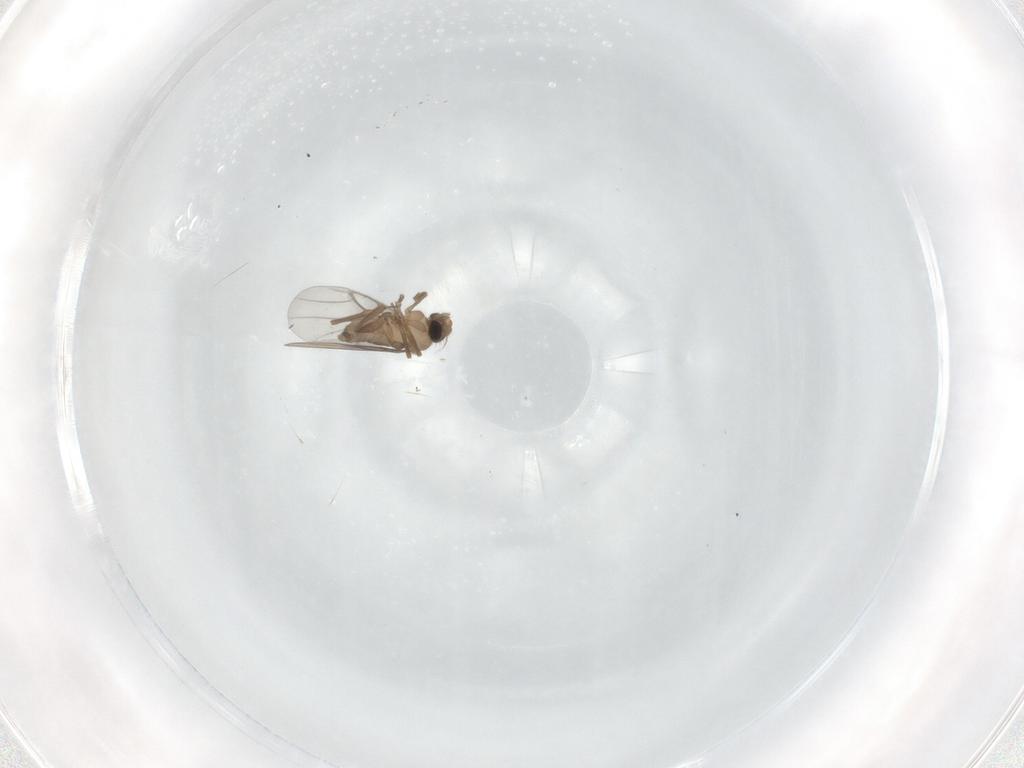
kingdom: Animalia
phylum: Arthropoda
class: Insecta
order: Diptera
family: Chironomidae
